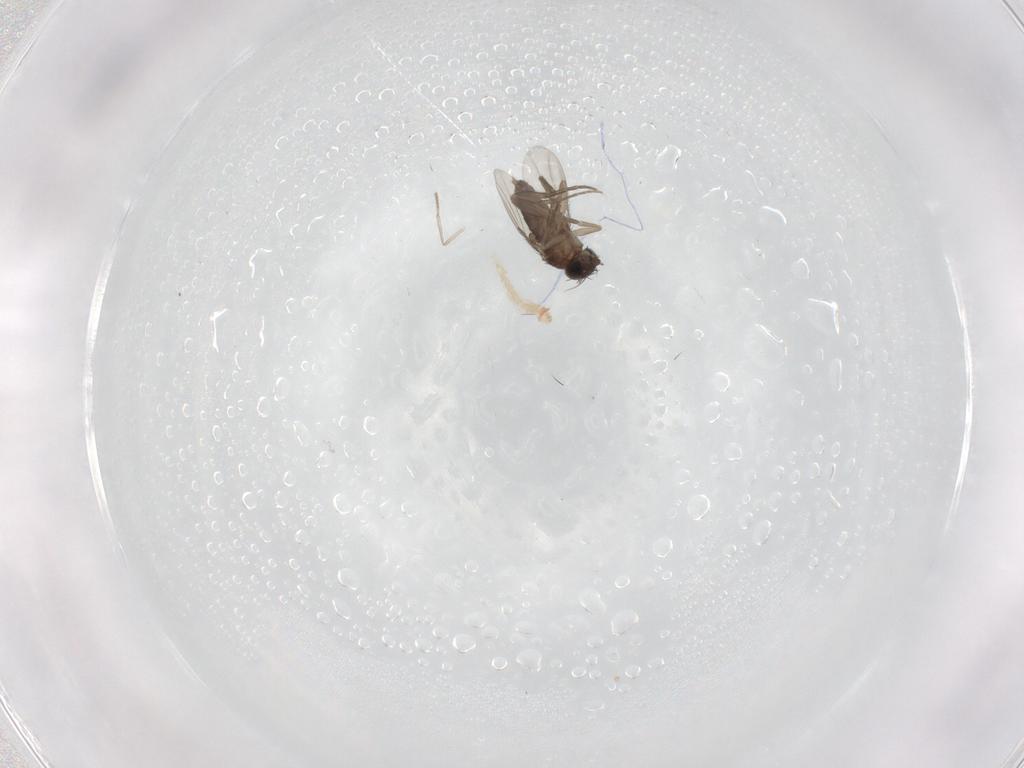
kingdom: Animalia
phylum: Arthropoda
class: Insecta
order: Diptera
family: Phoridae
